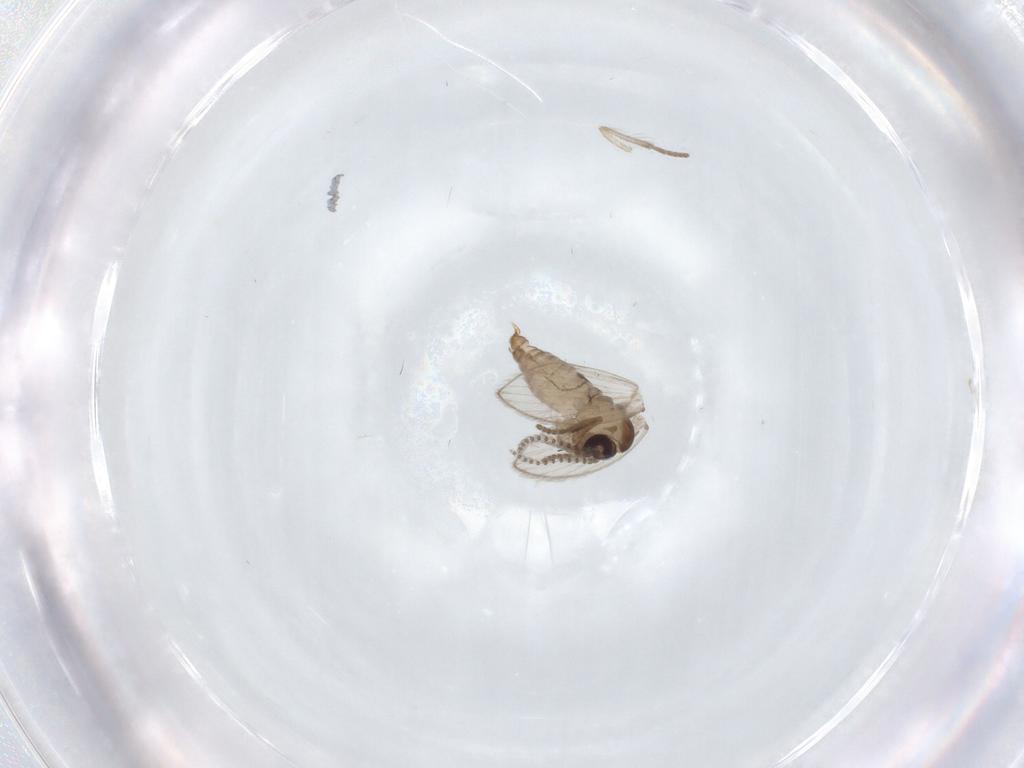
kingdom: Animalia
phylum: Arthropoda
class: Insecta
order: Diptera
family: Psychodidae
